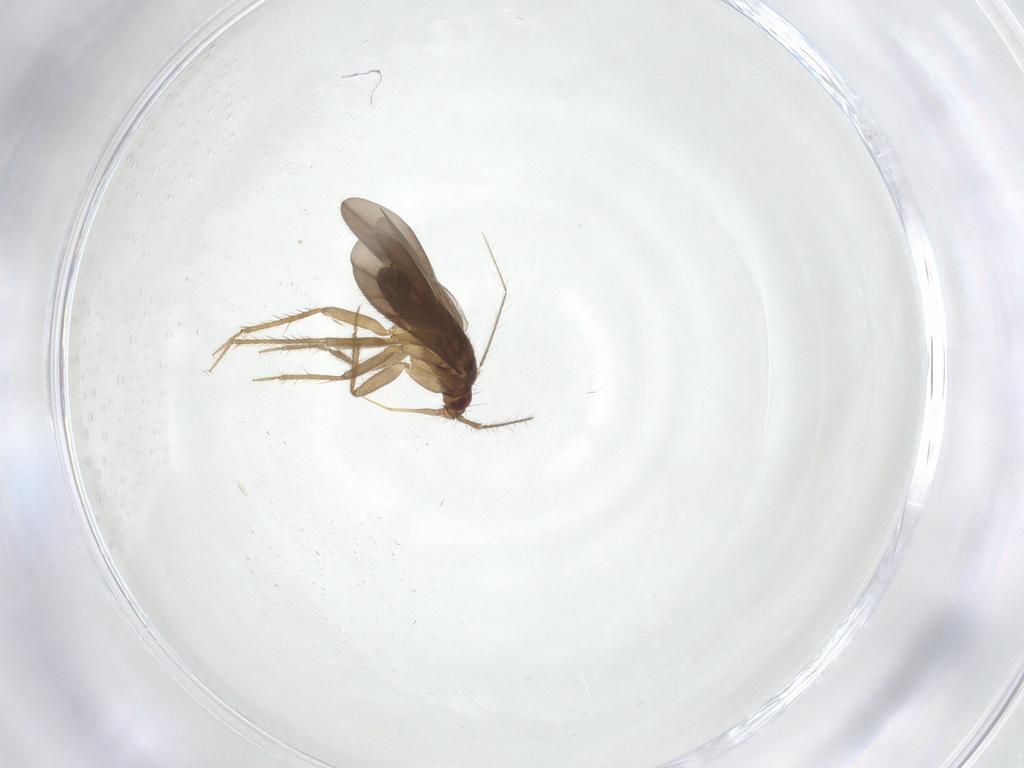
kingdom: Animalia
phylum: Arthropoda
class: Insecta
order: Hemiptera
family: Ceratocombidae
